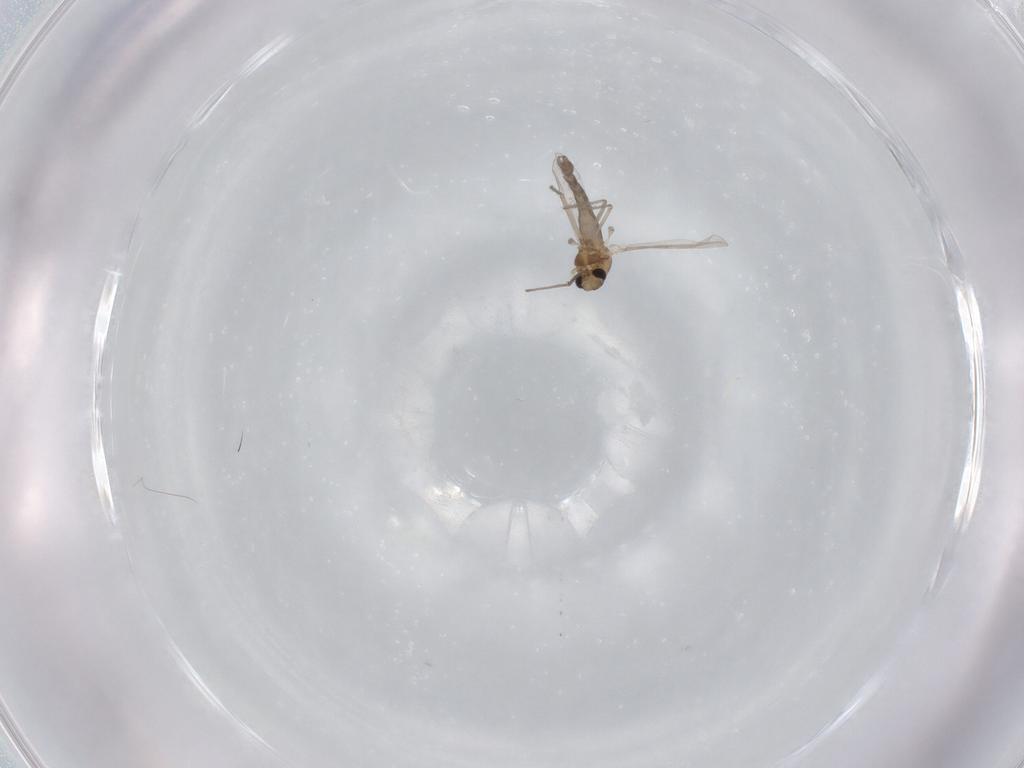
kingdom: Animalia
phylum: Arthropoda
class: Insecta
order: Diptera
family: Chironomidae
